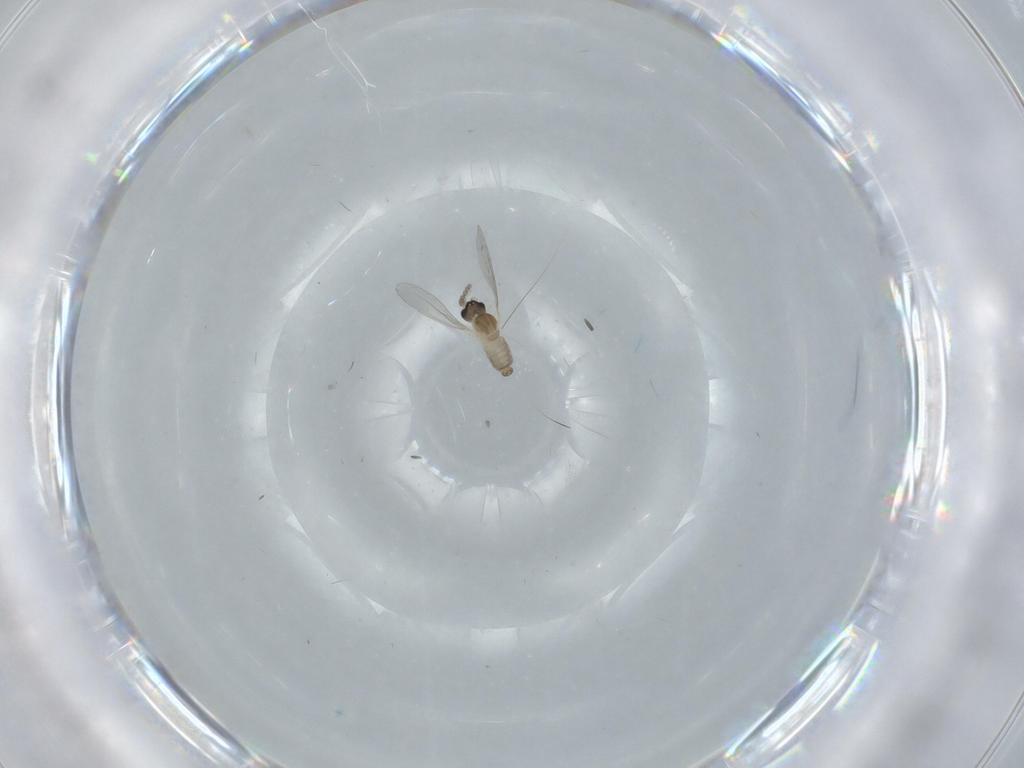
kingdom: Animalia
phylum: Arthropoda
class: Insecta
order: Diptera
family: Cecidomyiidae
